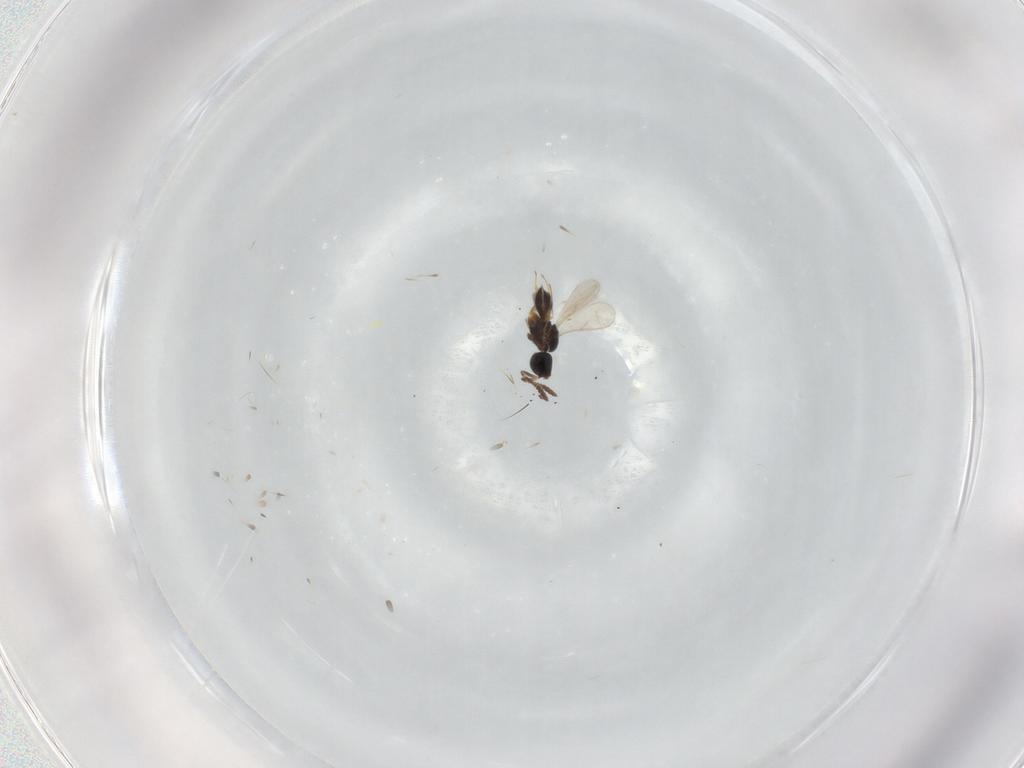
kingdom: Animalia
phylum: Arthropoda
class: Insecta
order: Hymenoptera
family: Scelionidae
